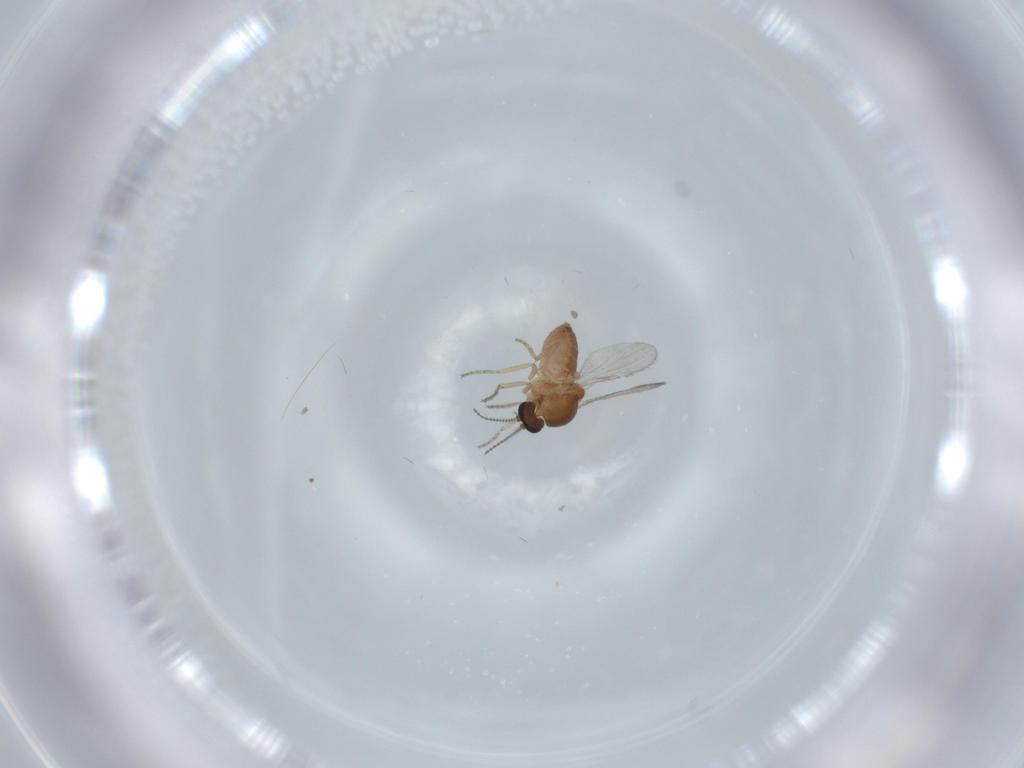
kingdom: Animalia
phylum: Arthropoda
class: Insecta
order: Diptera
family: Ceratopogonidae
